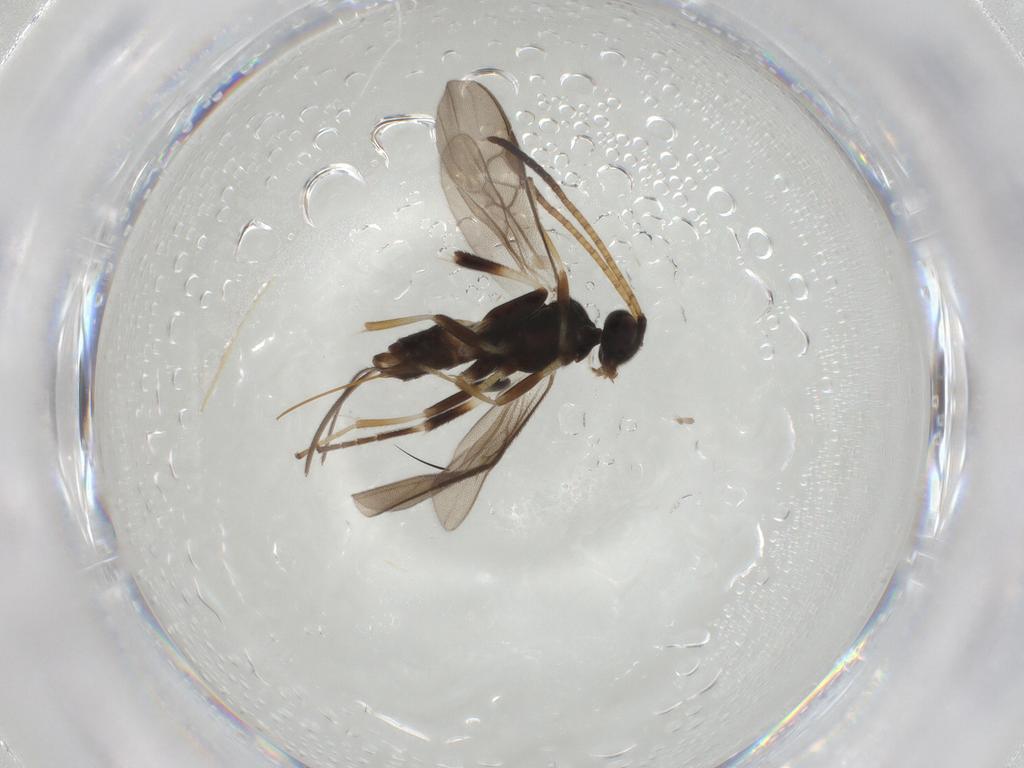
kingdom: Animalia
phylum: Arthropoda
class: Insecta
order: Hymenoptera
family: Braconidae
